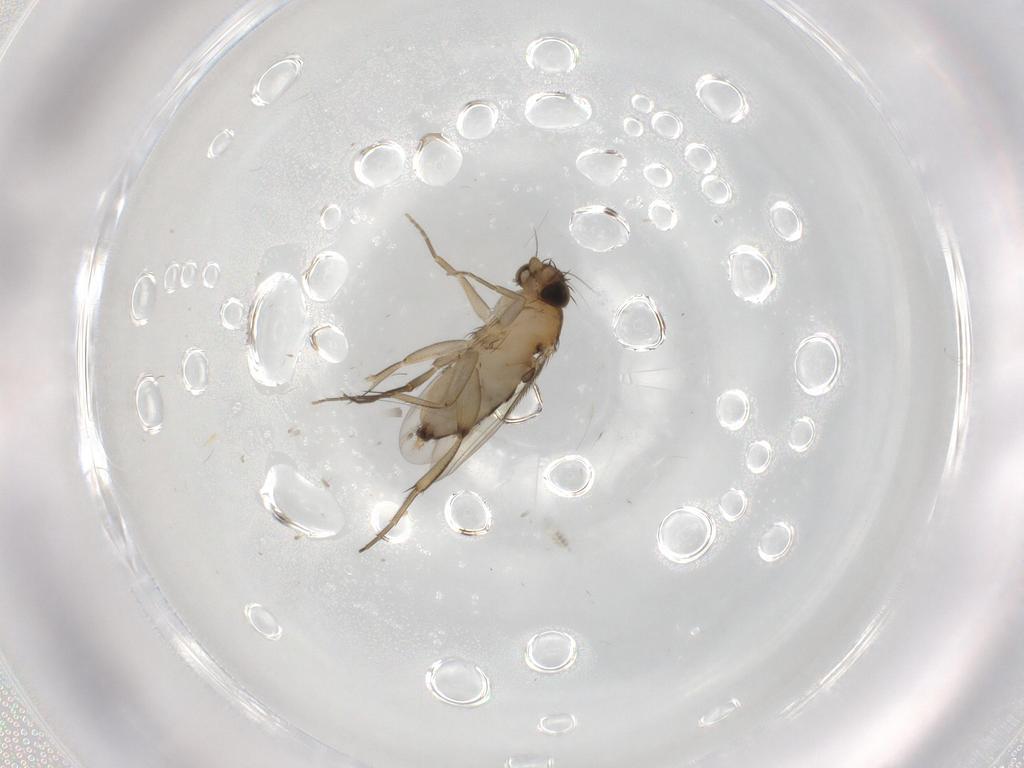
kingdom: Animalia
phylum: Arthropoda
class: Insecta
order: Diptera
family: Phoridae
